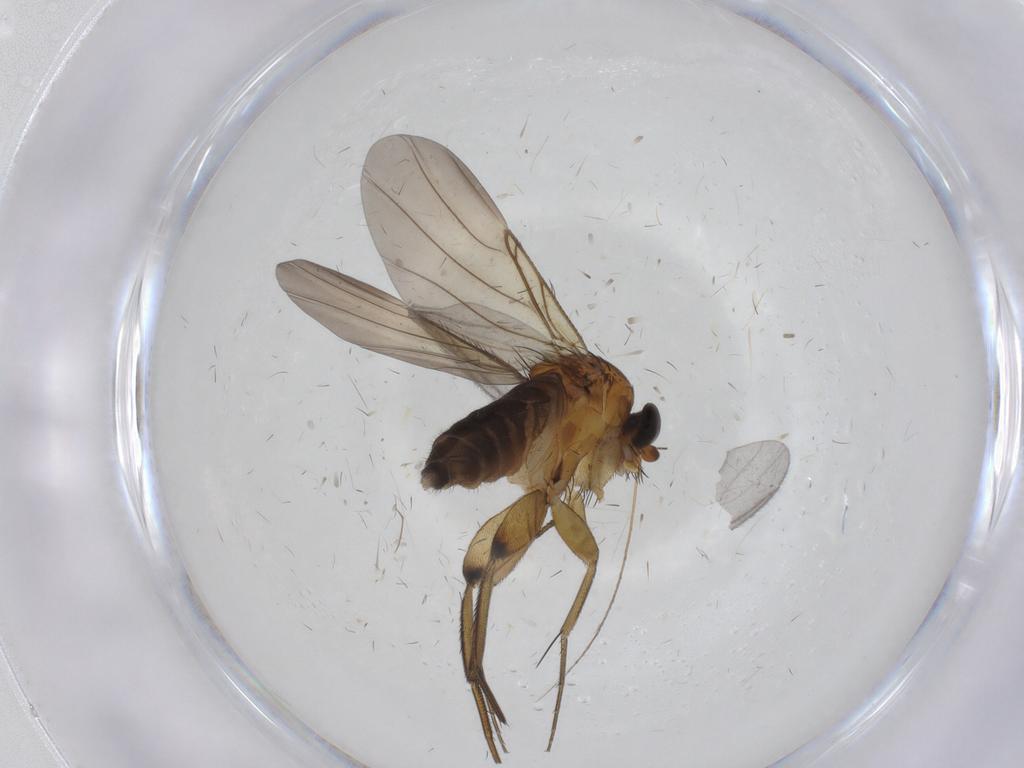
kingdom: Animalia
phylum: Arthropoda
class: Insecta
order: Diptera
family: Phoridae
